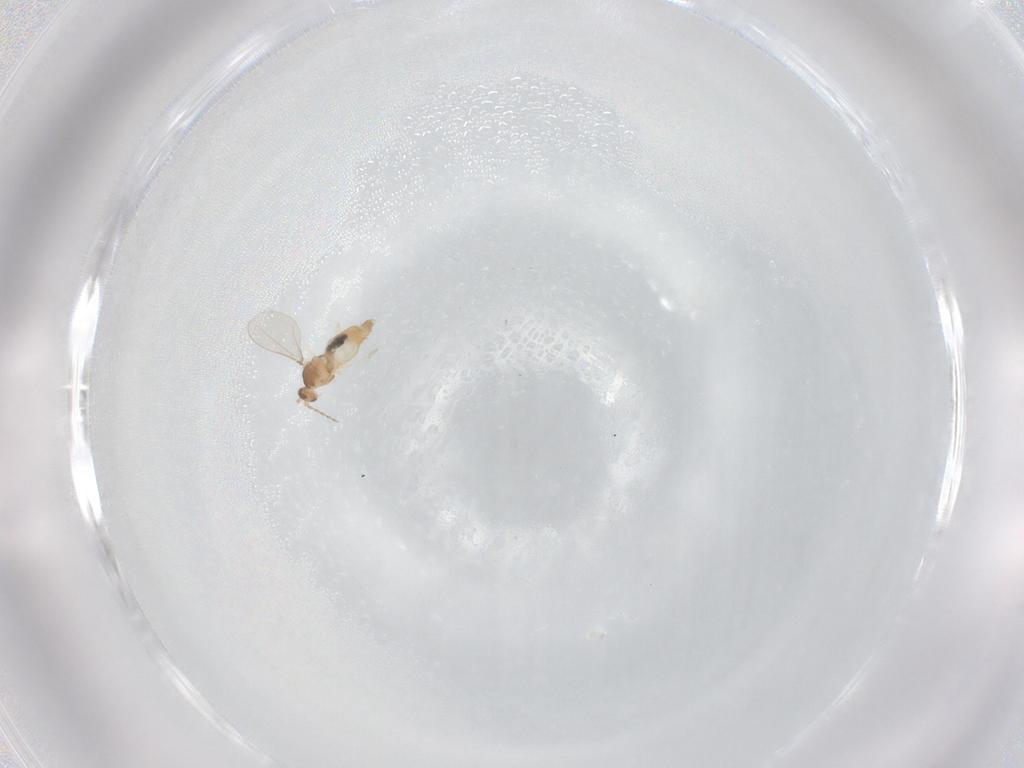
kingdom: Animalia
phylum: Arthropoda
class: Insecta
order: Diptera
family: Cecidomyiidae
